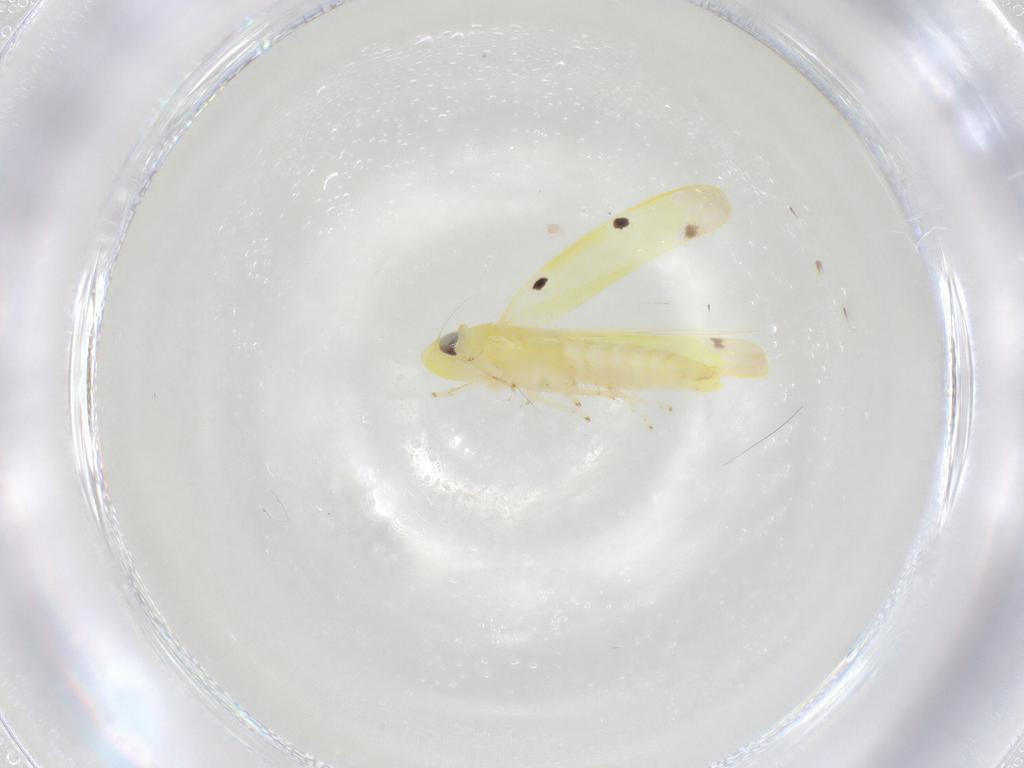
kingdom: Animalia
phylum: Arthropoda
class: Insecta
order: Hemiptera
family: Cicadellidae
